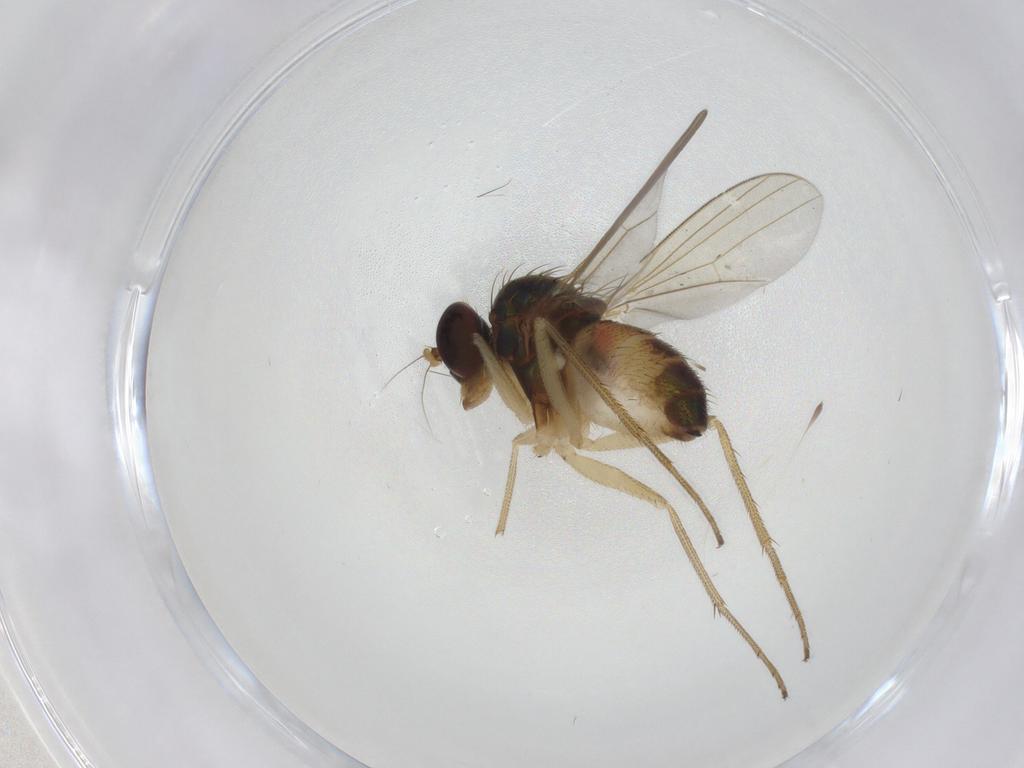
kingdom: Animalia
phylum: Arthropoda
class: Insecta
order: Diptera
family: Dolichopodidae
